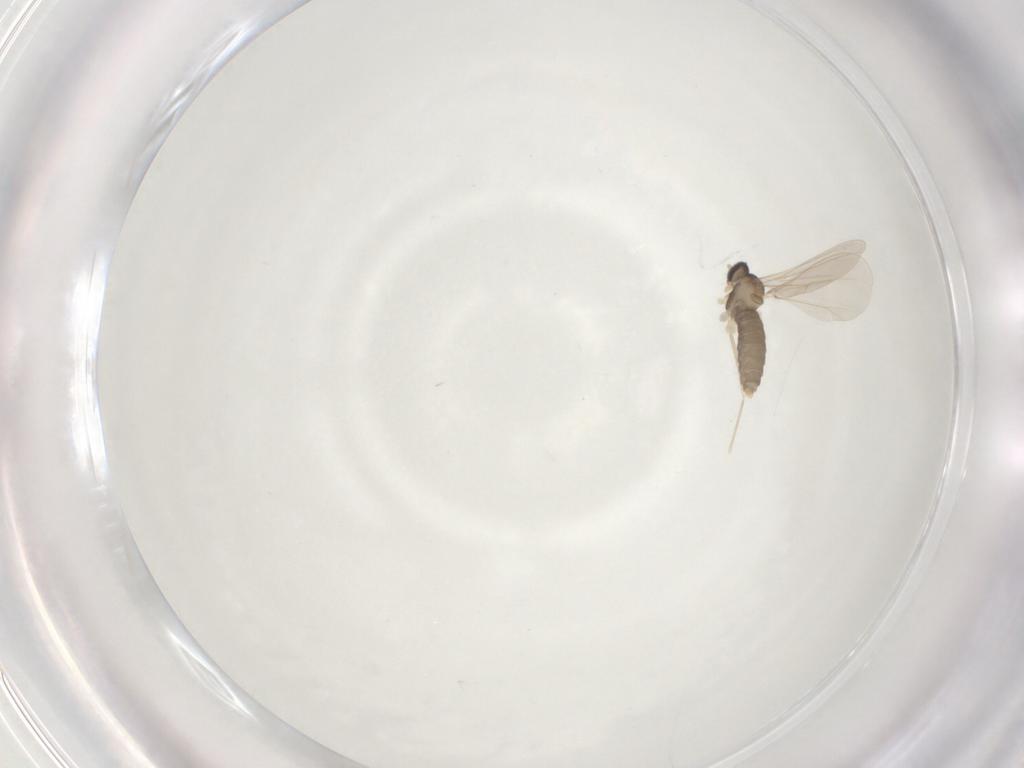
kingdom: Animalia
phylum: Arthropoda
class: Insecta
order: Diptera
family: Cecidomyiidae
